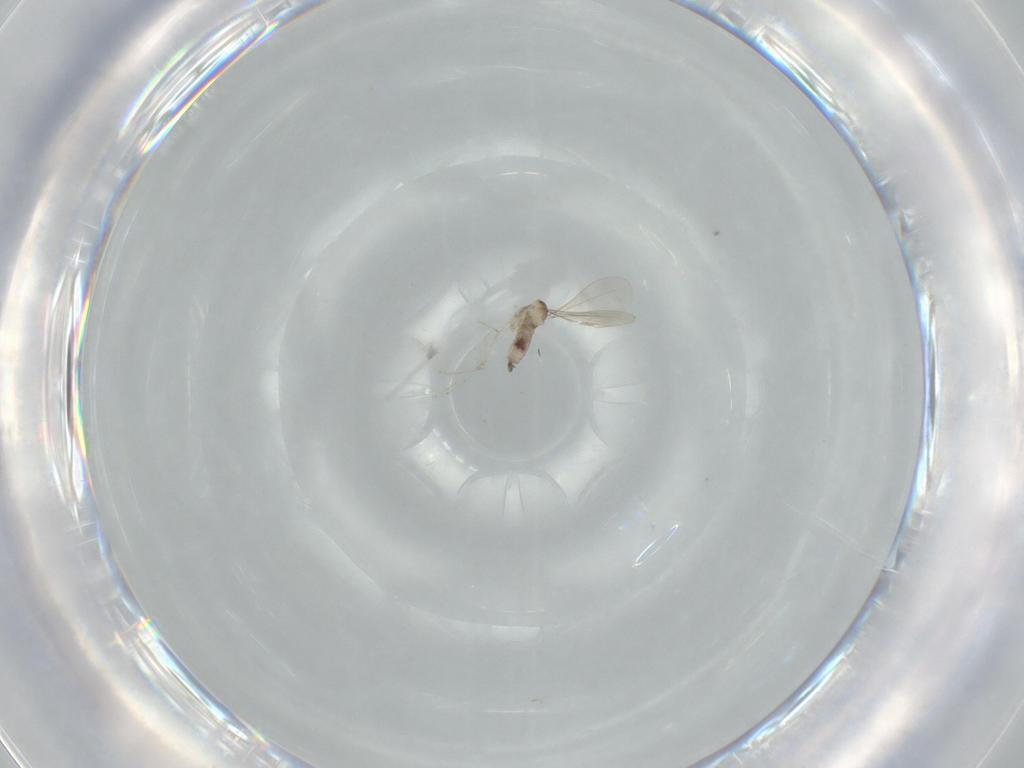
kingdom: Animalia
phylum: Arthropoda
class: Insecta
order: Diptera
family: Cecidomyiidae
